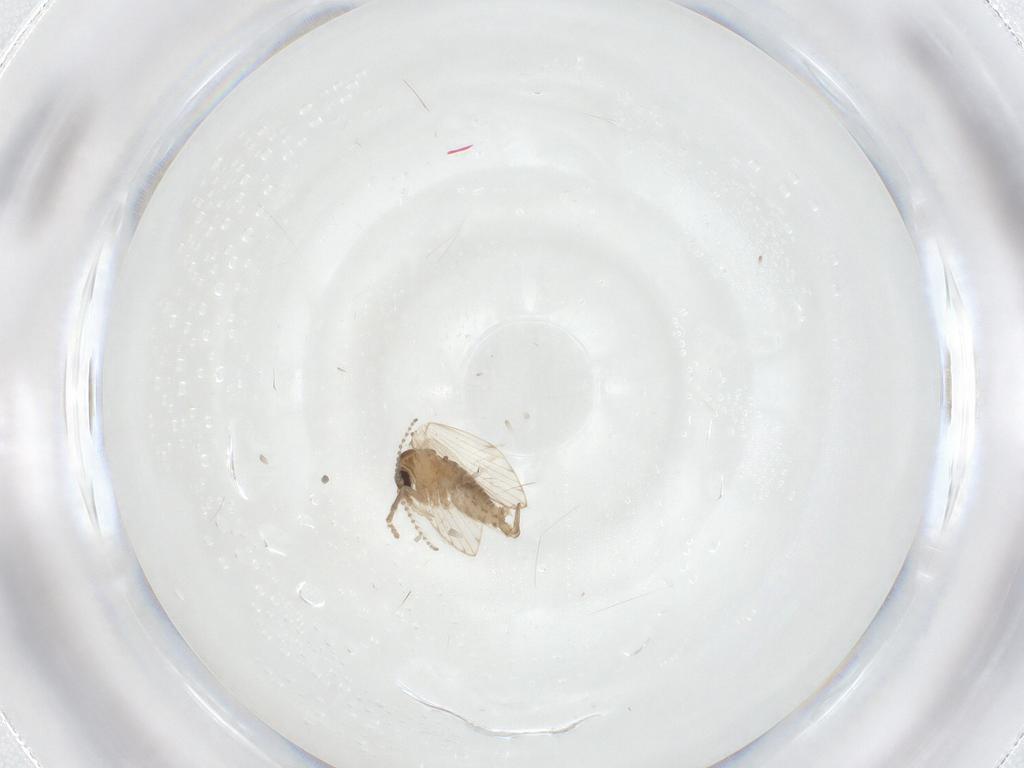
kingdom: Animalia
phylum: Arthropoda
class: Insecta
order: Diptera
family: Psychodidae
